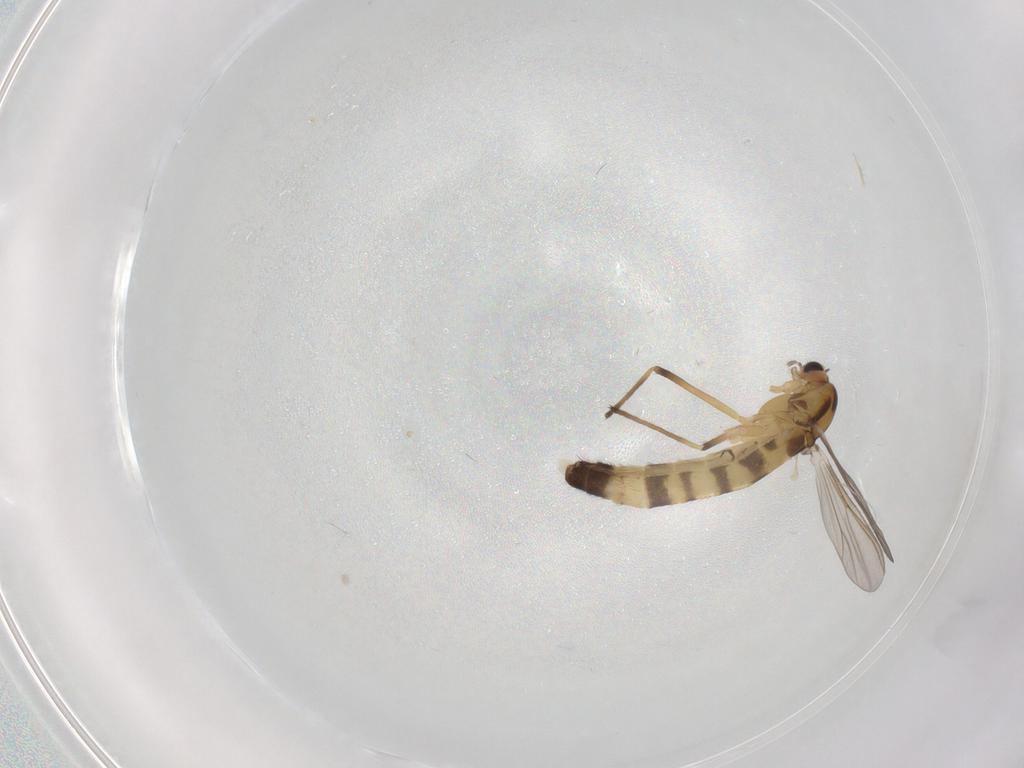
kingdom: Animalia
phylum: Arthropoda
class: Insecta
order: Diptera
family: Chironomidae
